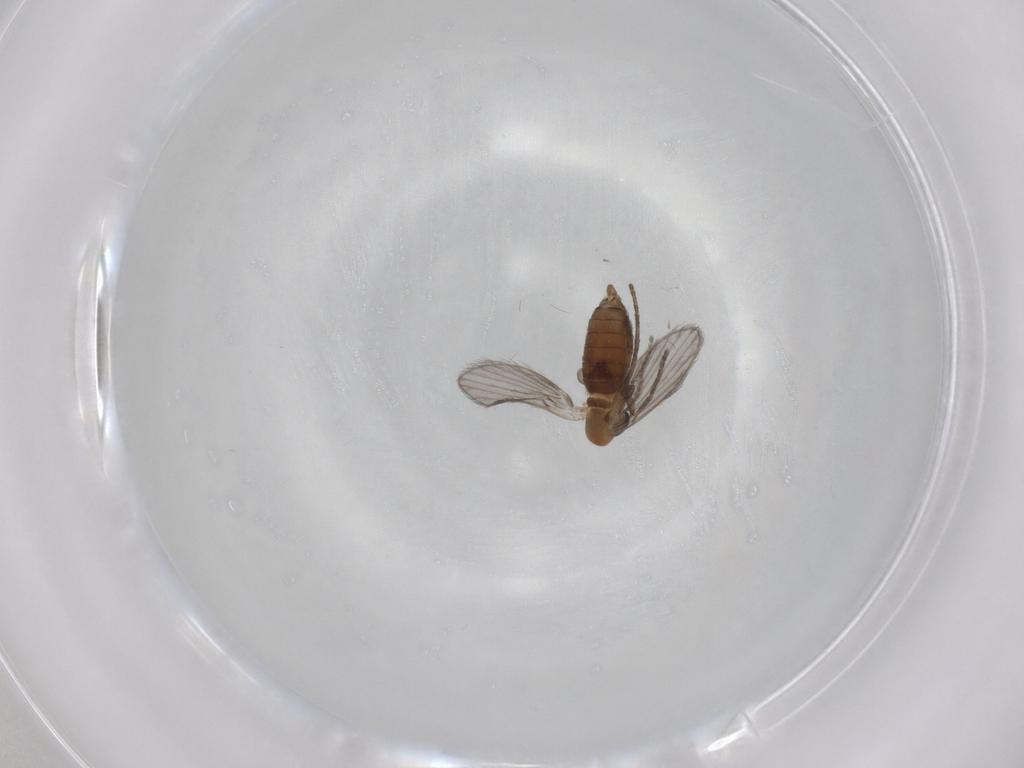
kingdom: Animalia
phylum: Arthropoda
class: Insecta
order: Diptera
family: Psychodidae
